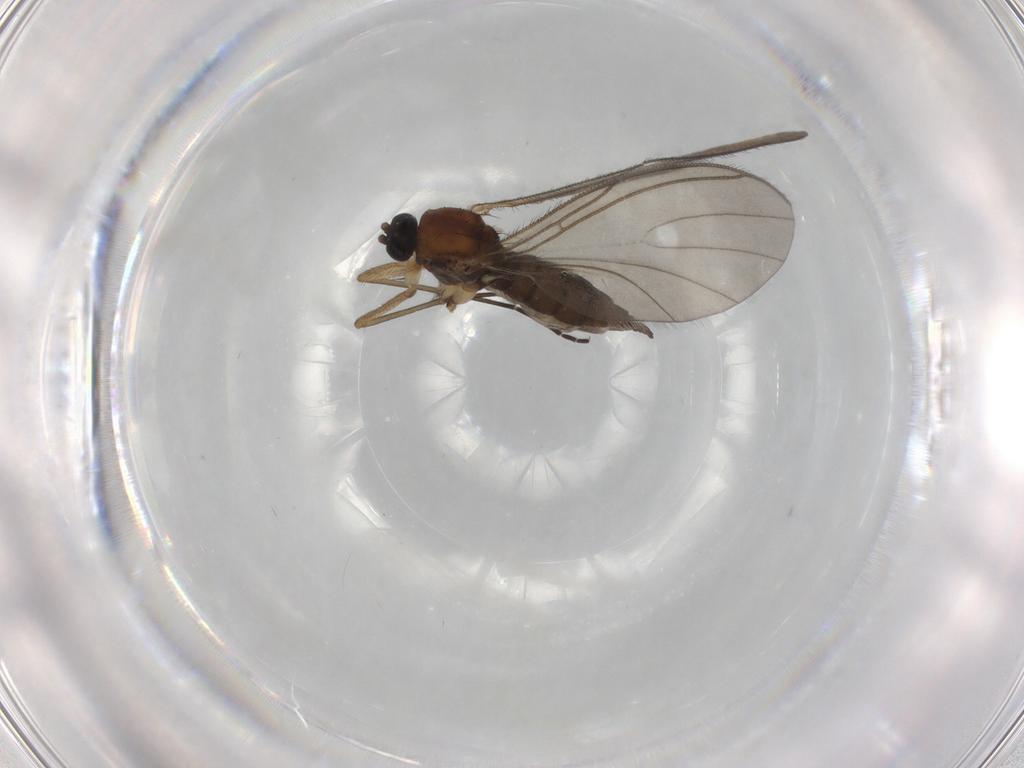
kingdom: Animalia
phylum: Arthropoda
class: Insecta
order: Diptera
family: Sciaridae
